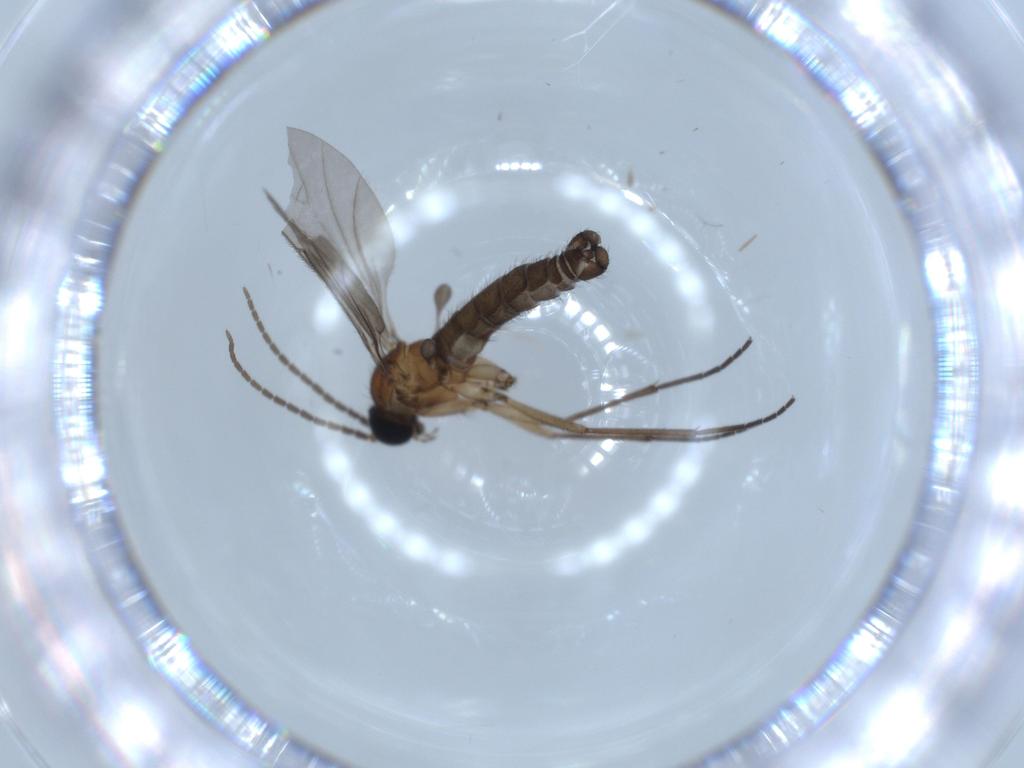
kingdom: Animalia
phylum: Arthropoda
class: Insecta
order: Diptera
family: Sciaridae
